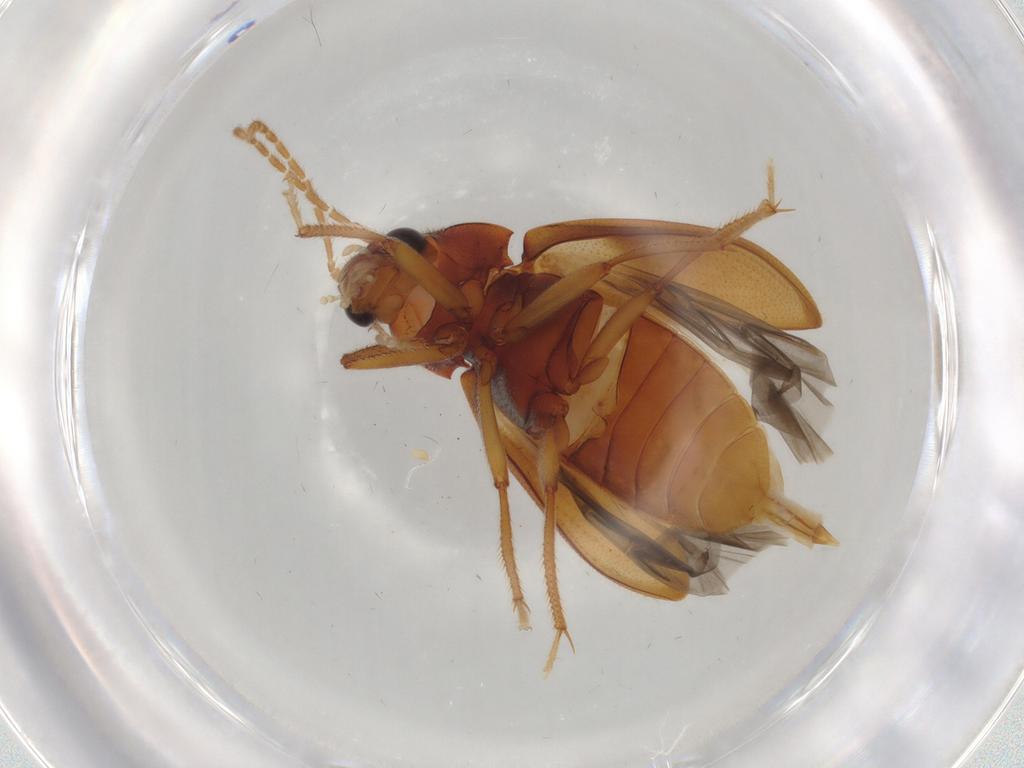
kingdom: Animalia
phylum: Arthropoda
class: Insecta
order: Coleoptera
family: Ptilodactylidae
